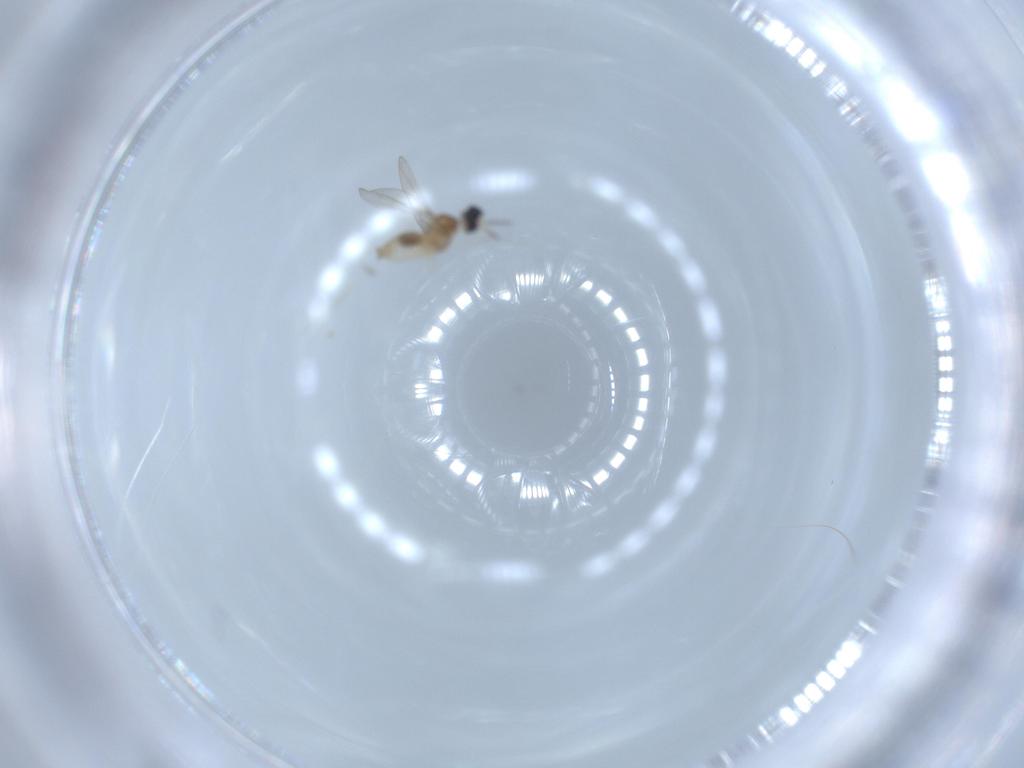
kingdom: Animalia
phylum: Arthropoda
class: Insecta
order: Diptera
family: Cecidomyiidae
